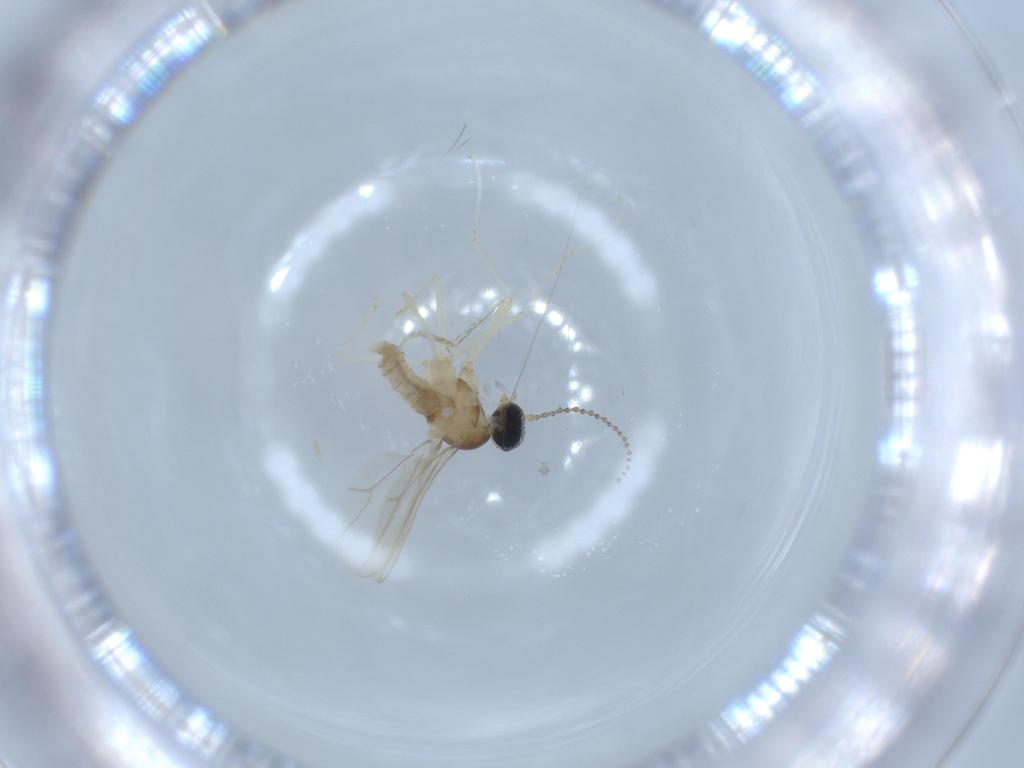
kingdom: Animalia
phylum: Arthropoda
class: Insecta
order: Diptera
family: Cecidomyiidae
